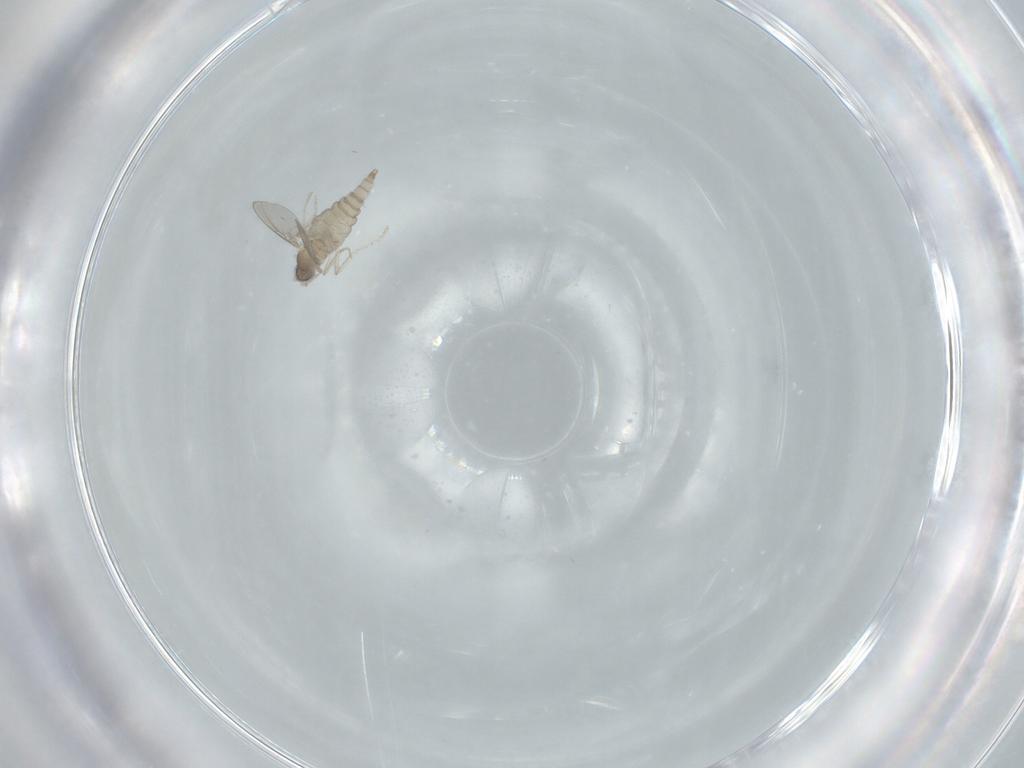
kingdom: Animalia
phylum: Arthropoda
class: Insecta
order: Diptera
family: Cecidomyiidae
